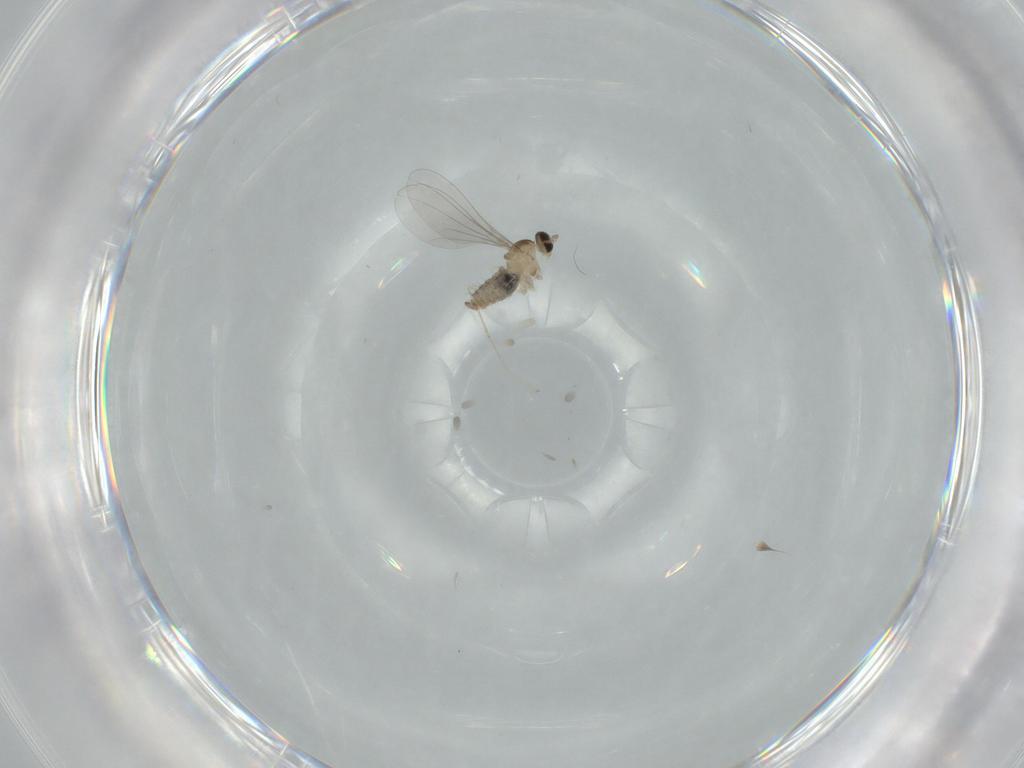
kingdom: Animalia
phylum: Arthropoda
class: Insecta
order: Diptera
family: Cecidomyiidae
